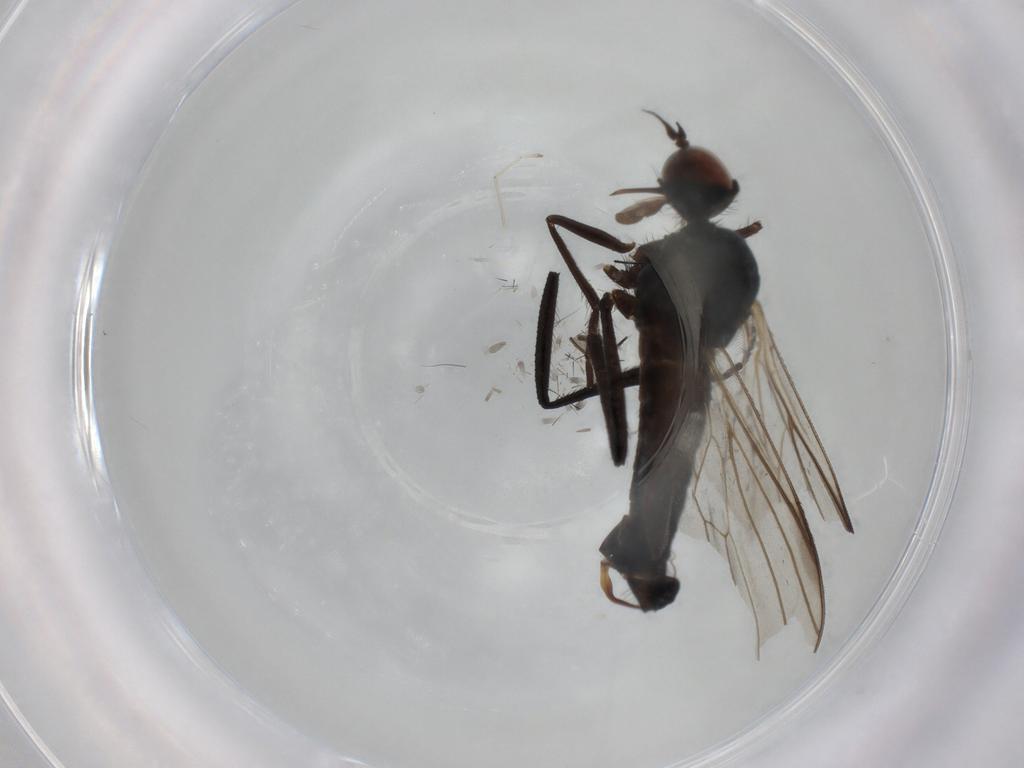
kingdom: Animalia
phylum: Arthropoda
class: Insecta
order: Diptera
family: Empididae
